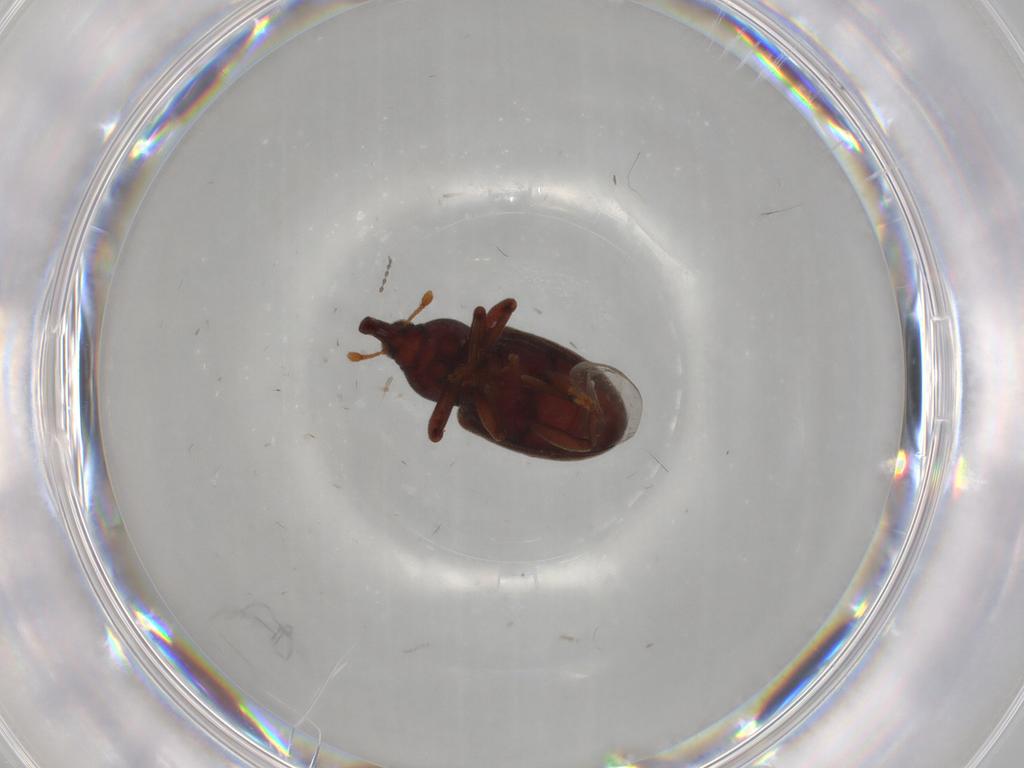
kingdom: Animalia
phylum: Arthropoda
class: Insecta
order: Coleoptera
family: Curculionidae
